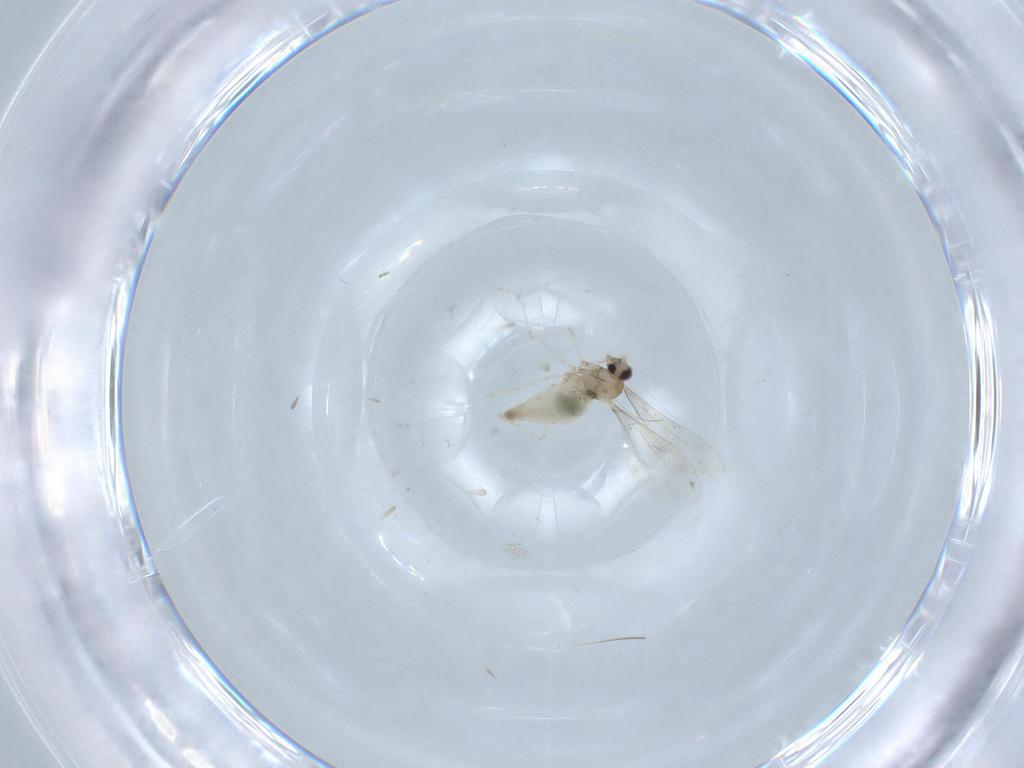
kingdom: Animalia
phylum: Arthropoda
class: Insecta
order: Diptera
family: Cecidomyiidae
